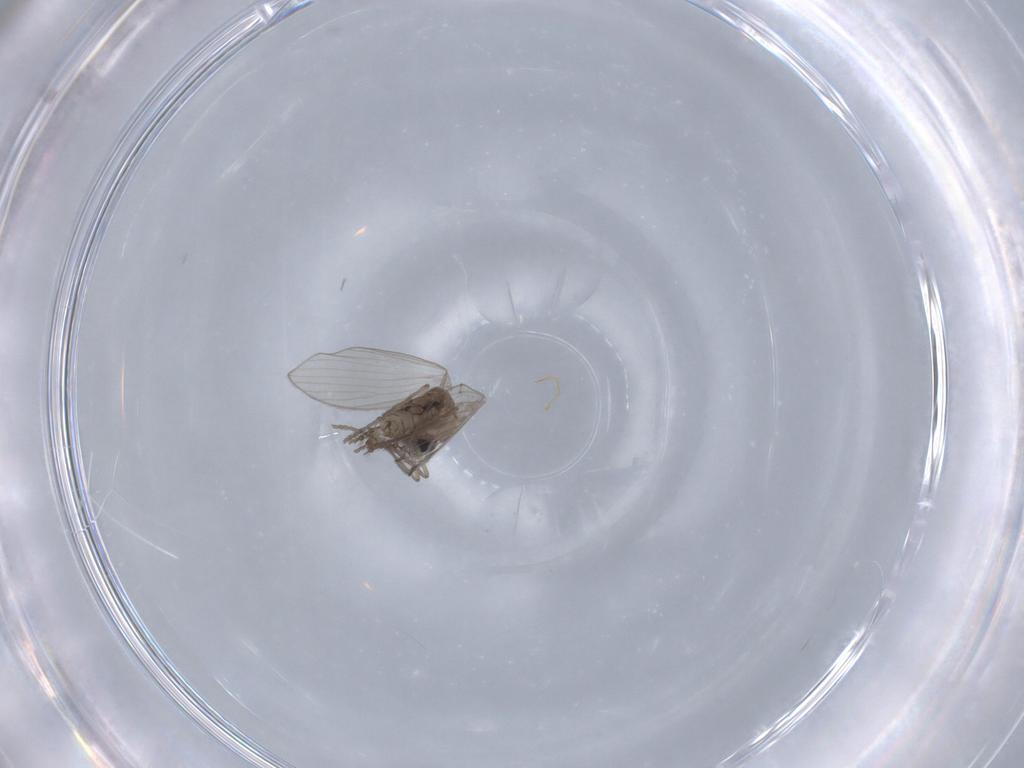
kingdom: Animalia
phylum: Arthropoda
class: Insecta
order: Diptera
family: Psychodidae
